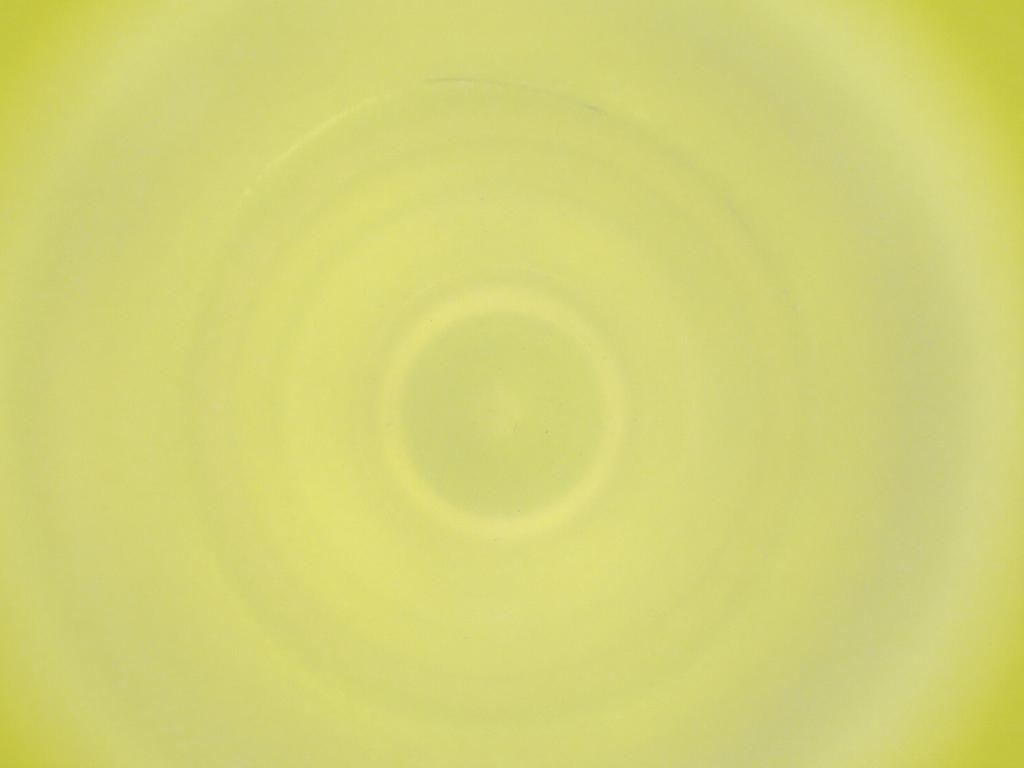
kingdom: Animalia
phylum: Arthropoda
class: Insecta
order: Diptera
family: Cecidomyiidae
